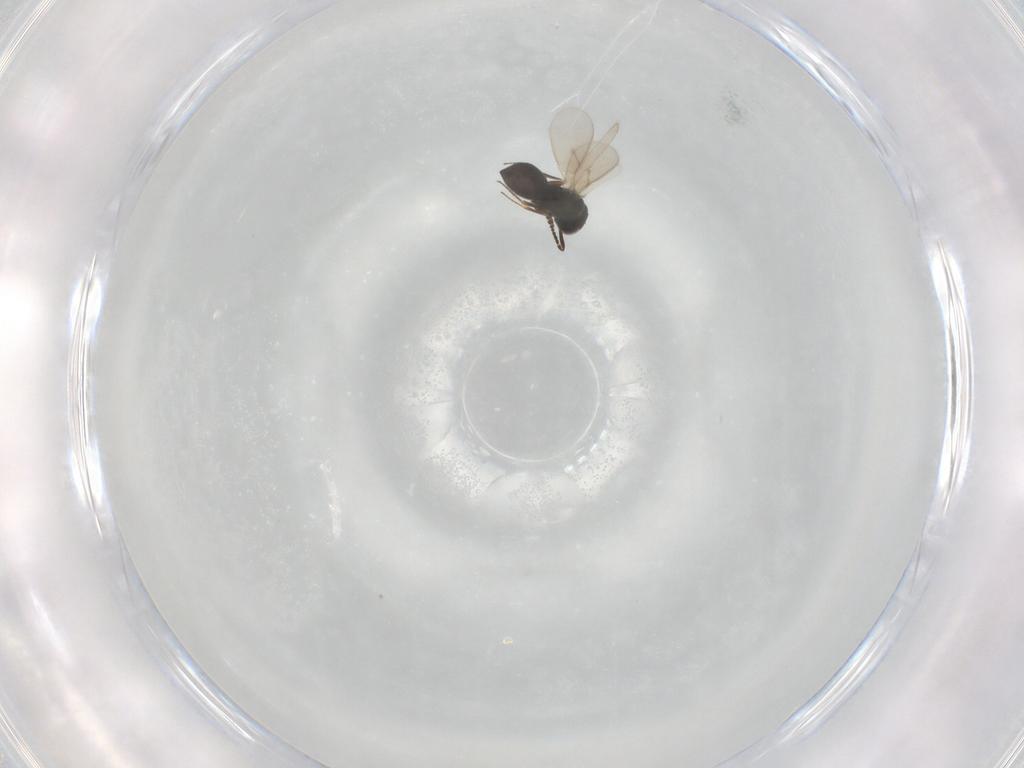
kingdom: Animalia
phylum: Arthropoda
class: Insecta
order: Hymenoptera
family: Scelionidae
